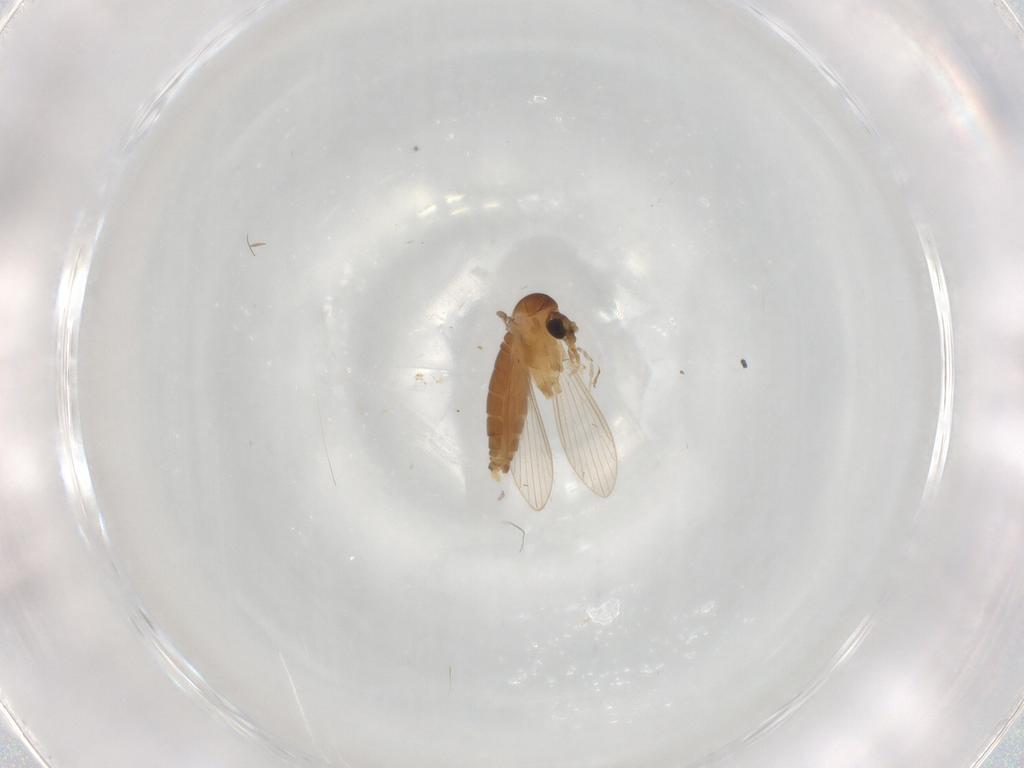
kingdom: Animalia
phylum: Arthropoda
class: Insecta
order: Diptera
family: Psychodidae
